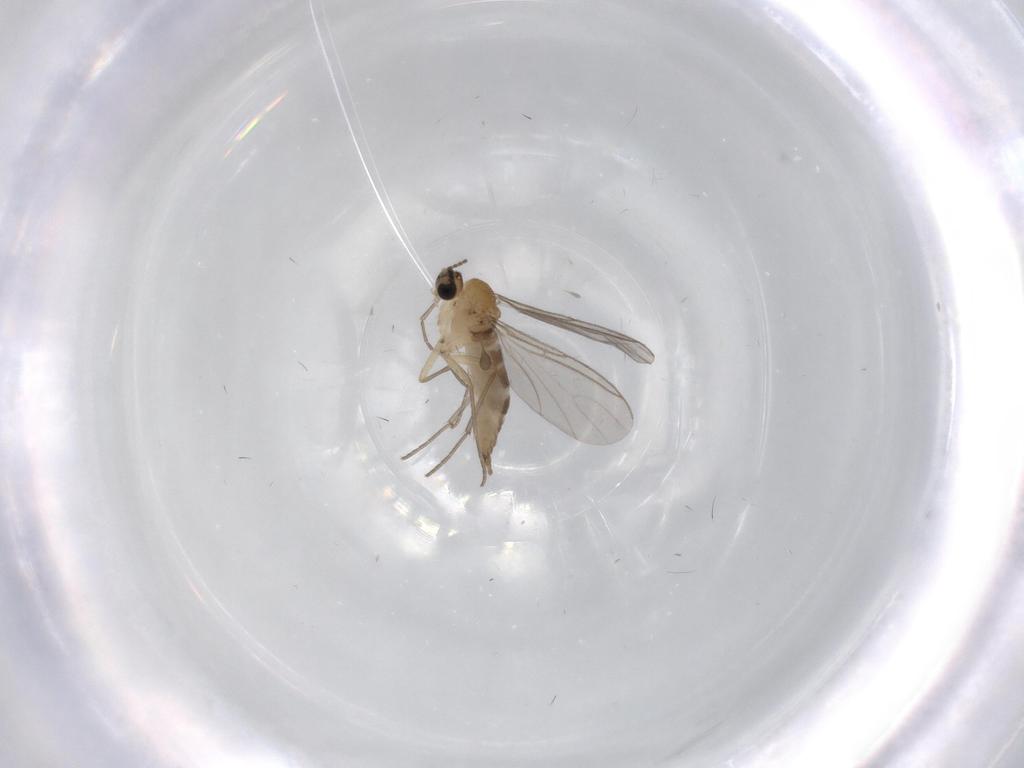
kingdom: Animalia
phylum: Arthropoda
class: Insecta
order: Diptera
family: Sciaridae
